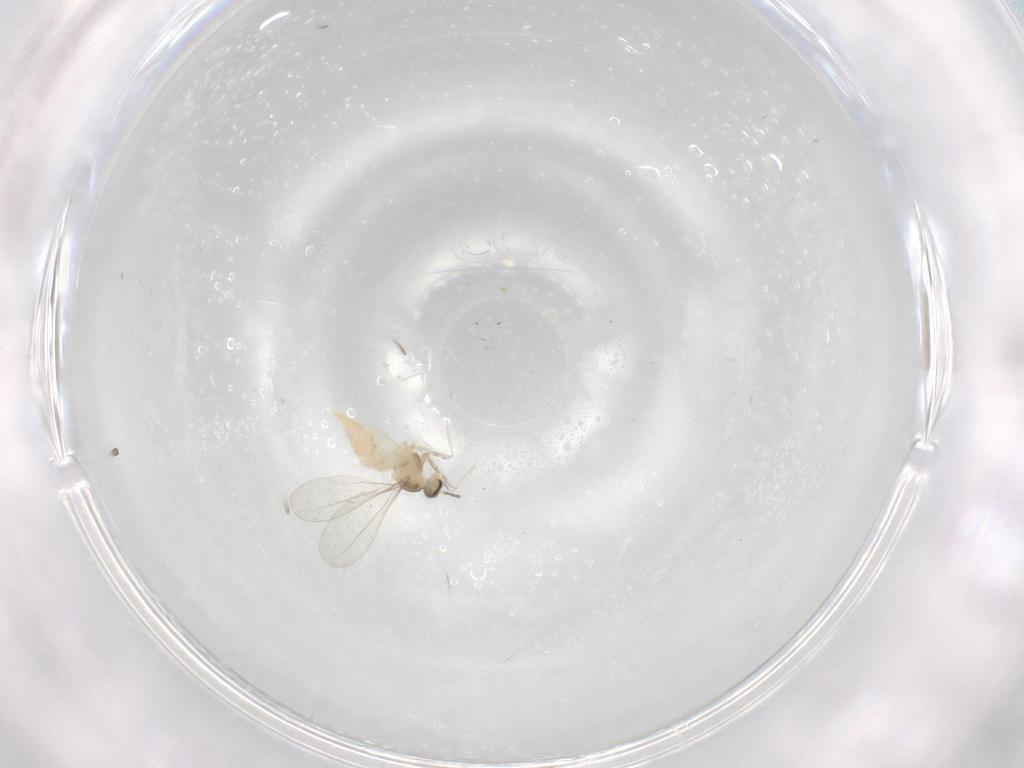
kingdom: Animalia
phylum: Arthropoda
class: Insecta
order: Diptera
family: Cecidomyiidae
